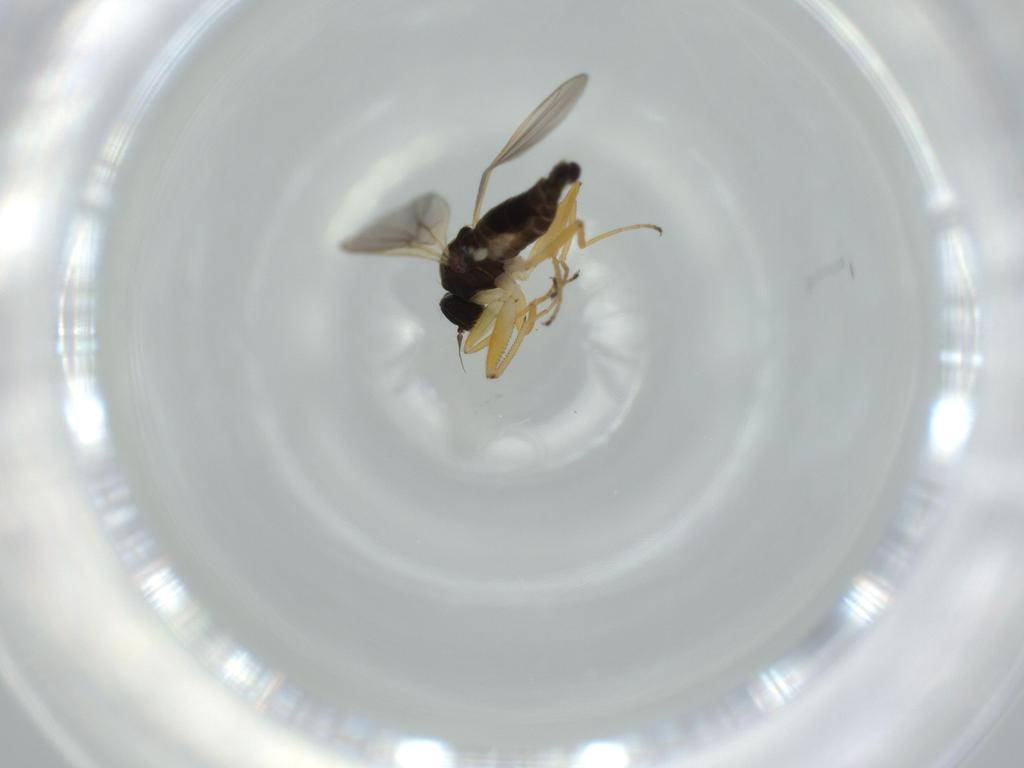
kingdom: Animalia
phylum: Arthropoda
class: Insecta
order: Diptera
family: Hybotidae
